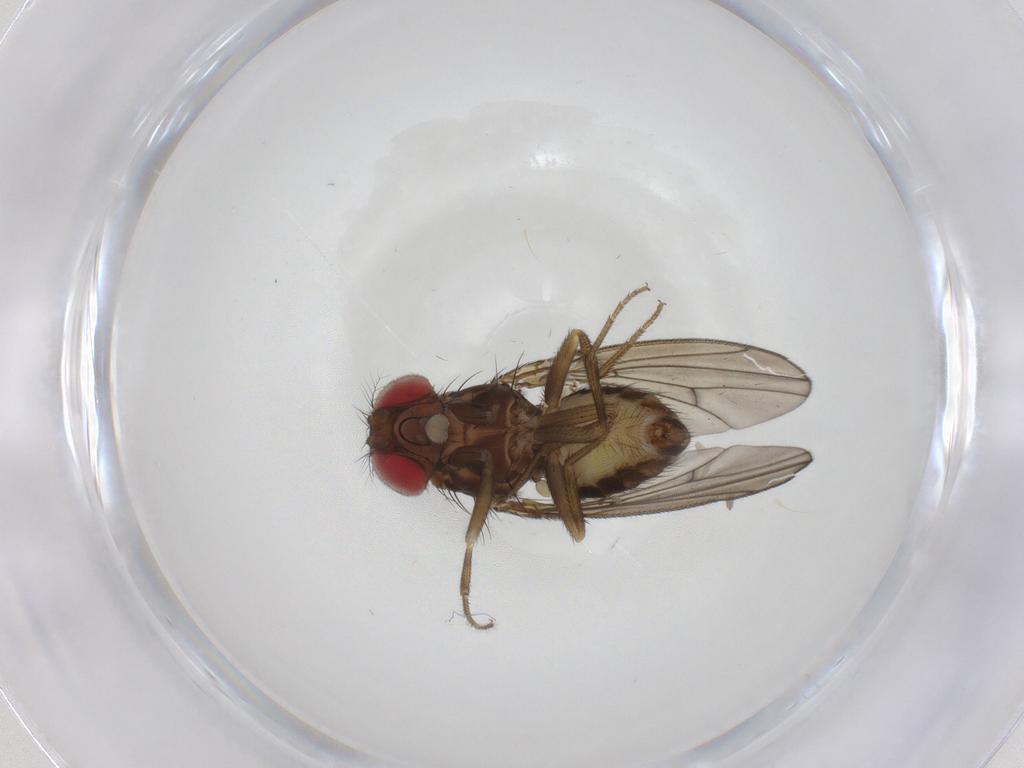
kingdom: Animalia
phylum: Arthropoda
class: Insecta
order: Diptera
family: Drosophilidae
